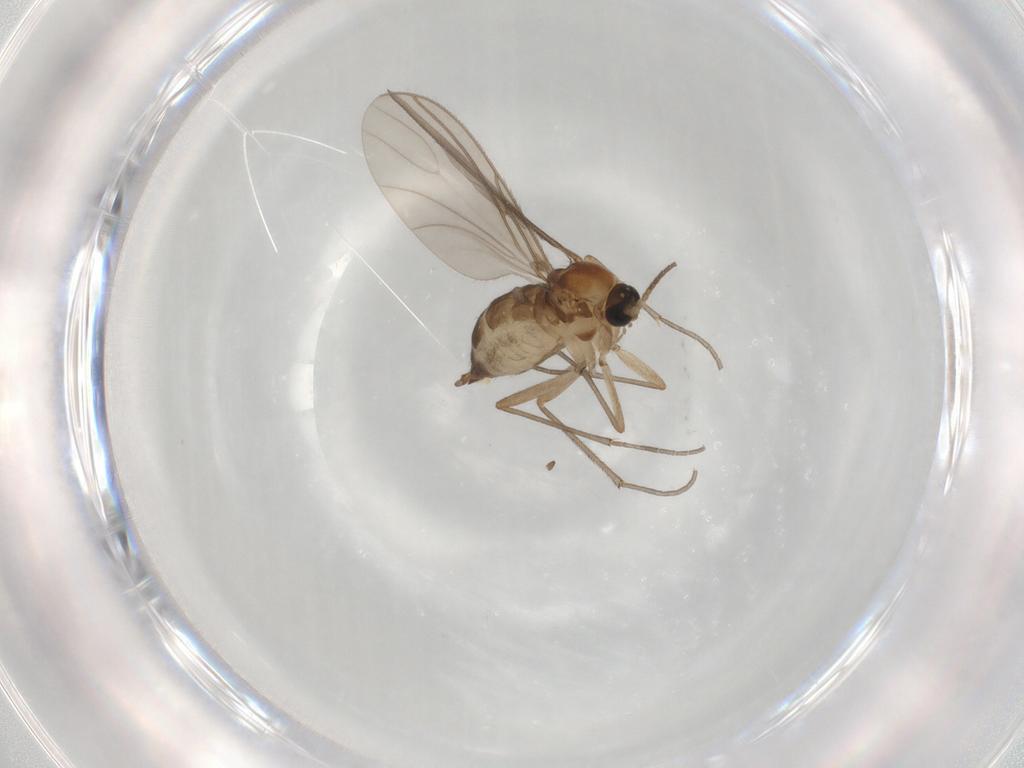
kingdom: Animalia
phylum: Arthropoda
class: Insecta
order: Diptera
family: Sciaridae
